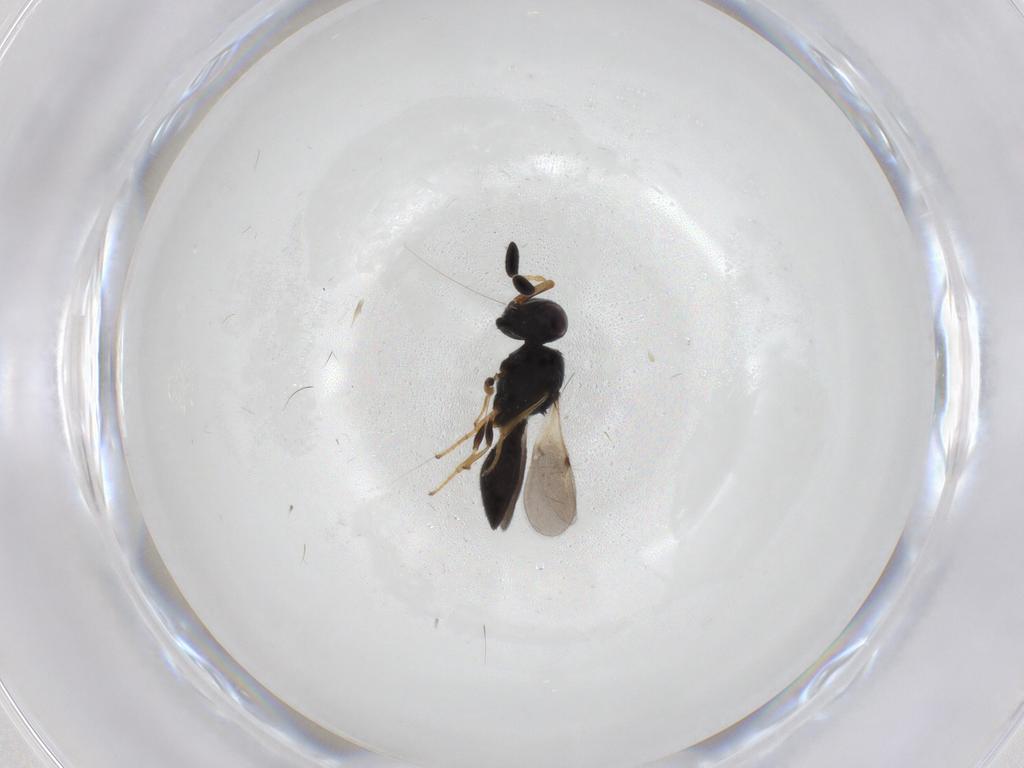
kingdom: Animalia
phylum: Arthropoda
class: Insecta
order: Hymenoptera
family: Scelionidae
